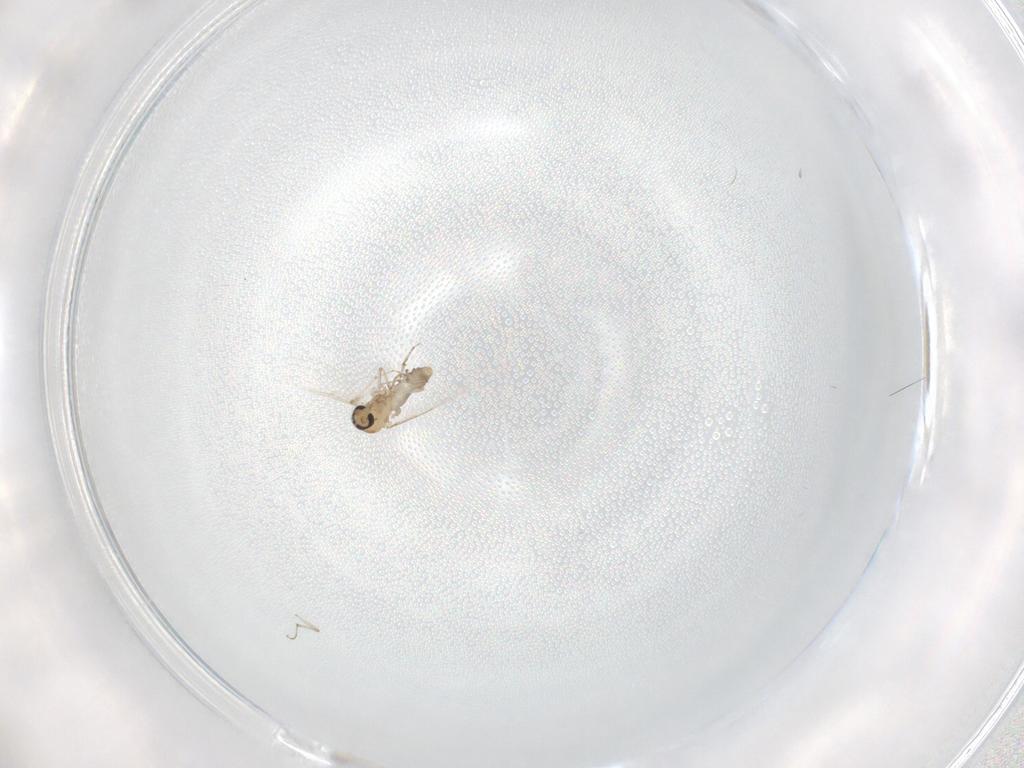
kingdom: Animalia
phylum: Arthropoda
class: Insecta
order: Diptera
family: Ceratopogonidae
